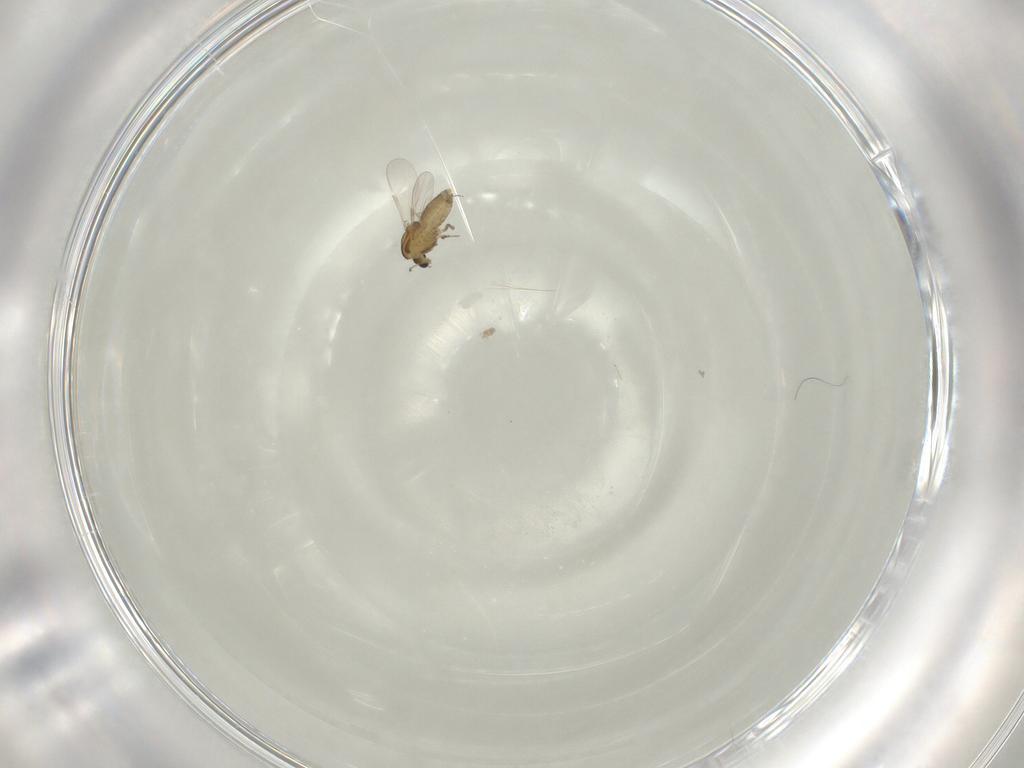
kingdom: Animalia
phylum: Arthropoda
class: Insecta
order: Diptera
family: Chironomidae
